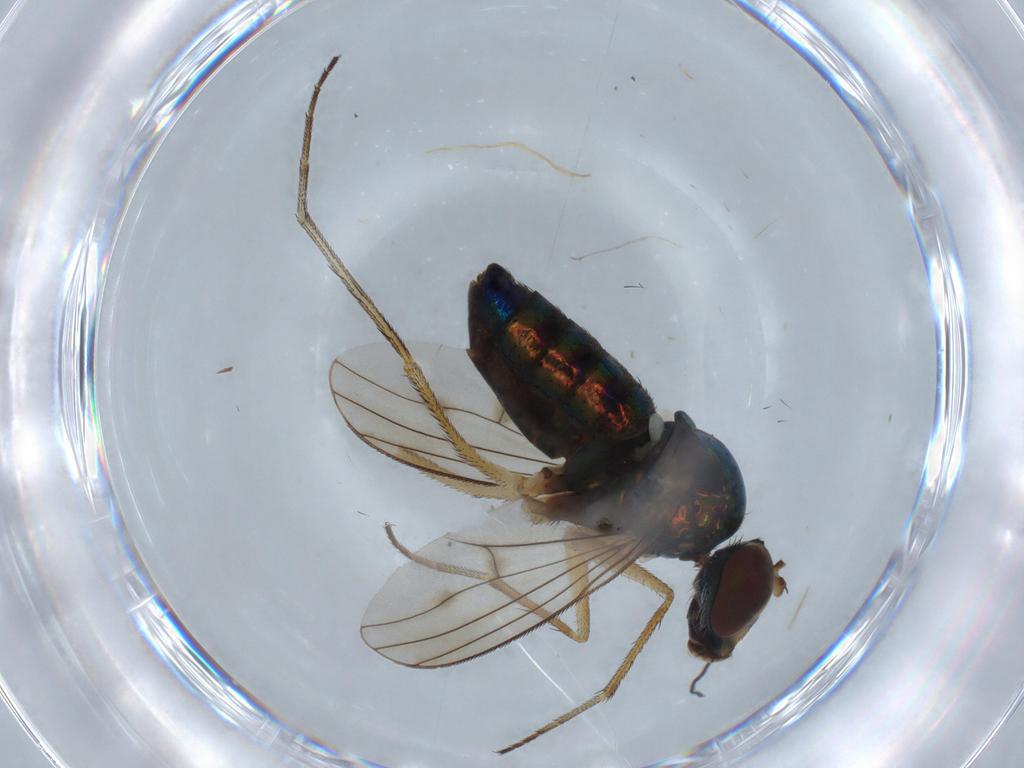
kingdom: Animalia
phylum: Arthropoda
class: Insecta
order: Diptera
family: Dolichopodidae
